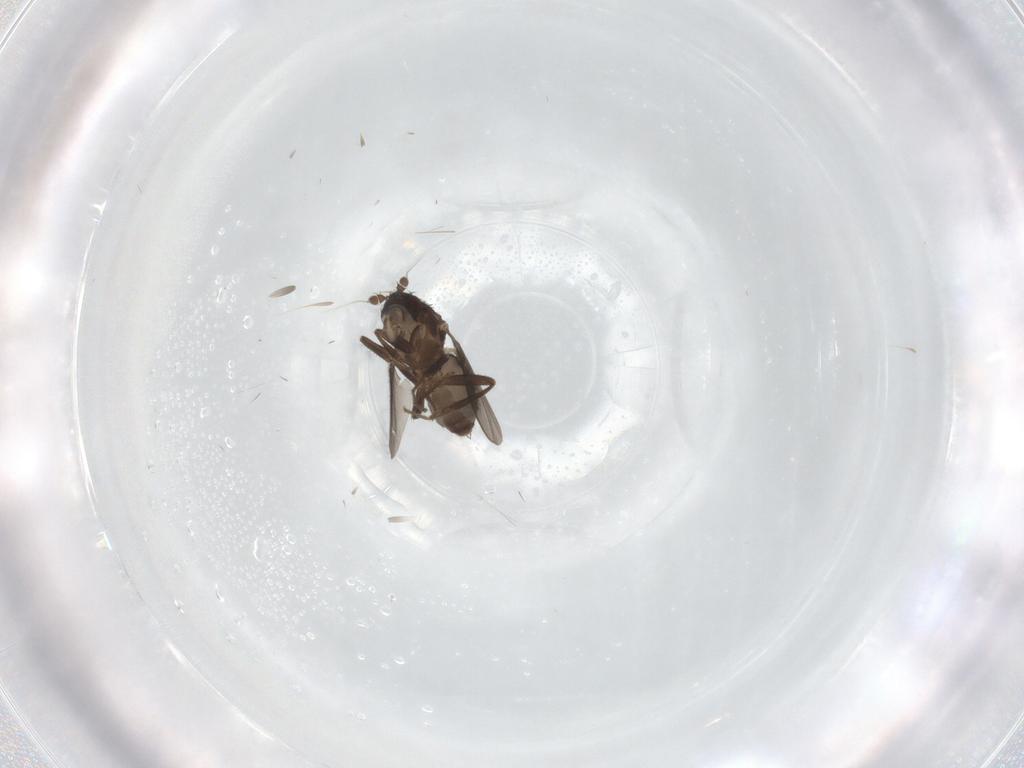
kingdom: Animalia
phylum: Arthropoda
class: Insecta
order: Diptera
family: Sphaeroceridae
